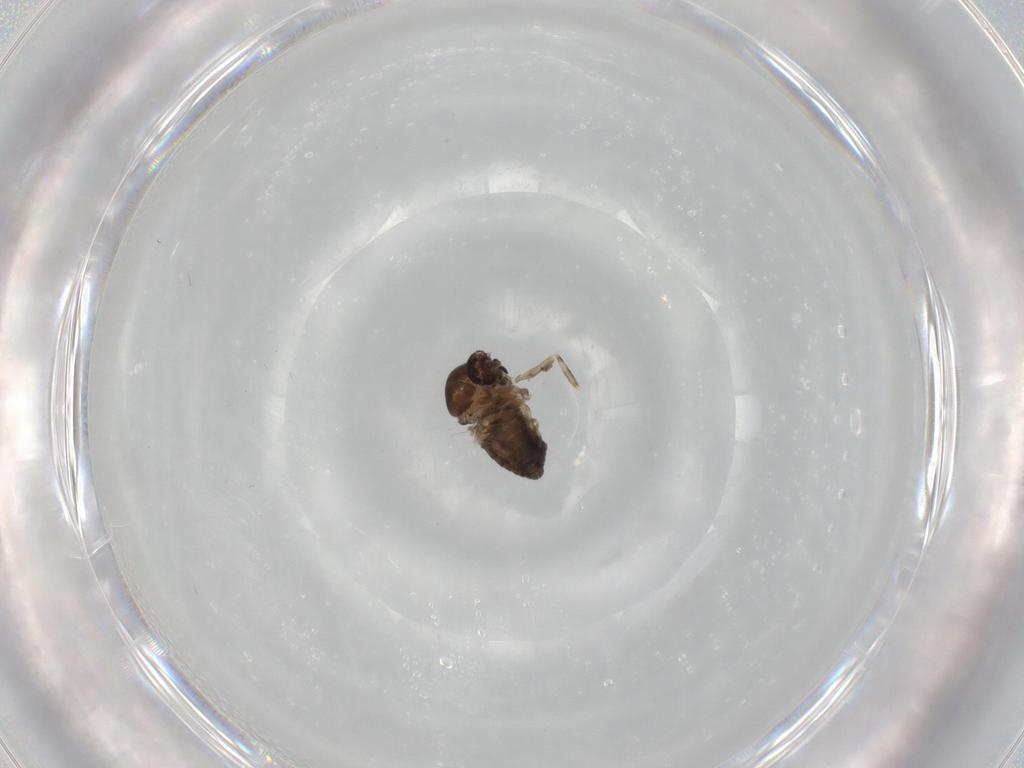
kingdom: Animalia
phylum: Arthropoda
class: Insecta
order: Diptera
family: Ceratopogonidae
